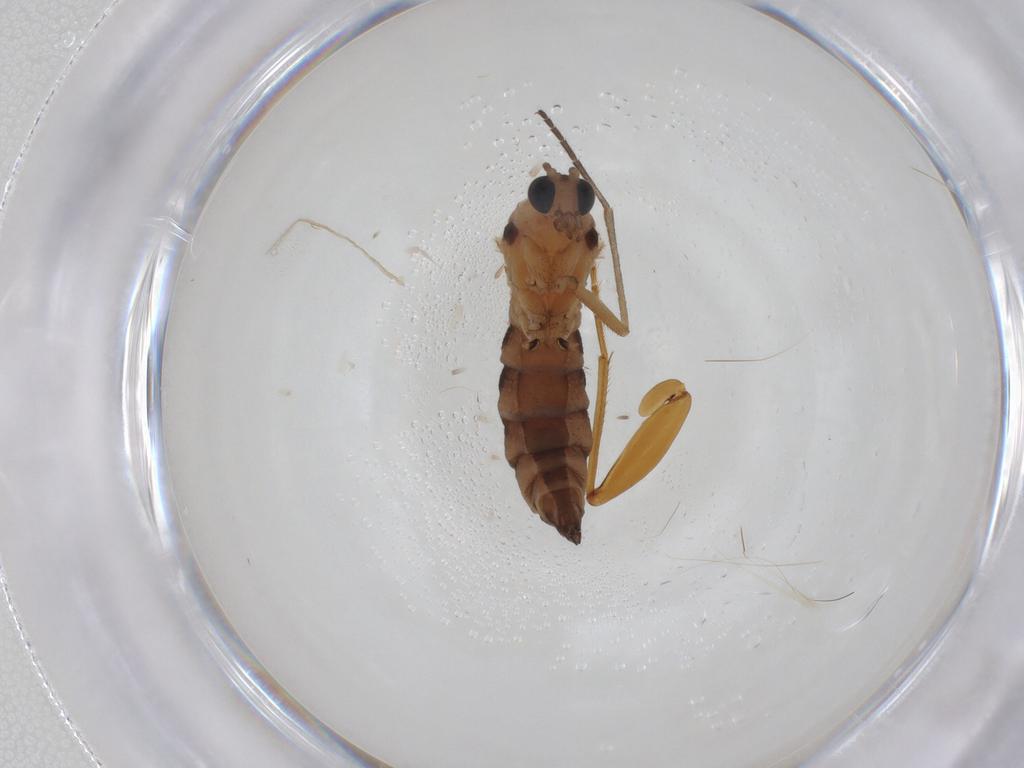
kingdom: Animalia
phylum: Arthropoda
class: Insecta
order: Diptera
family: Sciaridae
